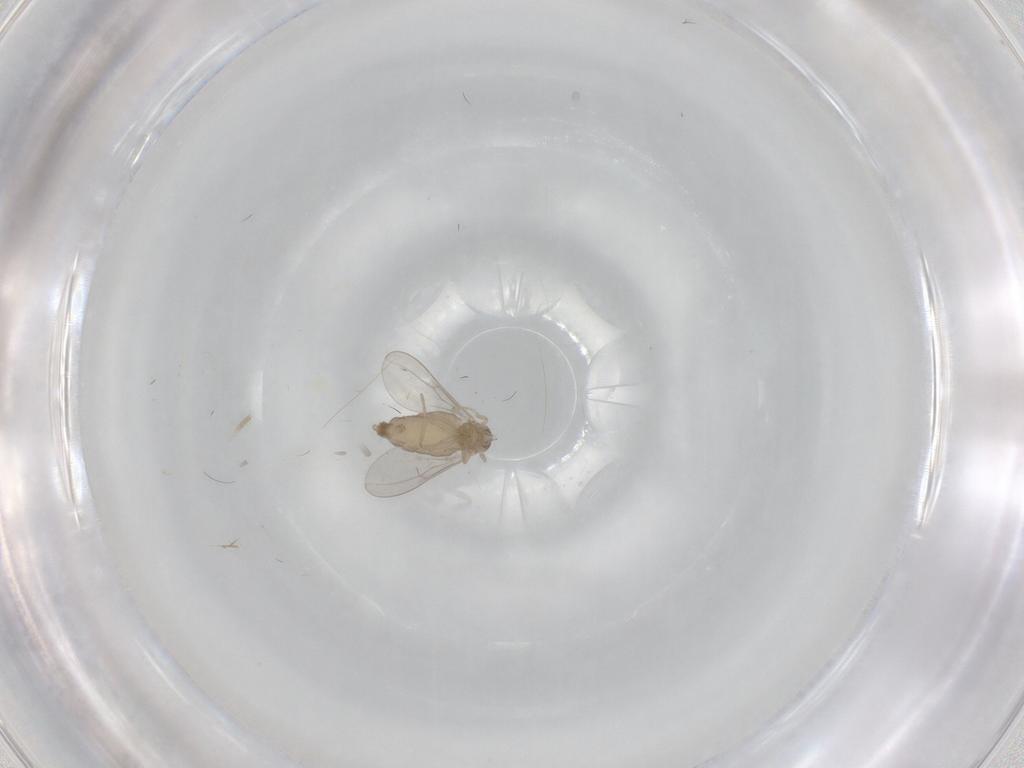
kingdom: Animalia
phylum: Arthropoda
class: Insecta
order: Diptera
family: Cecidomyiidae
